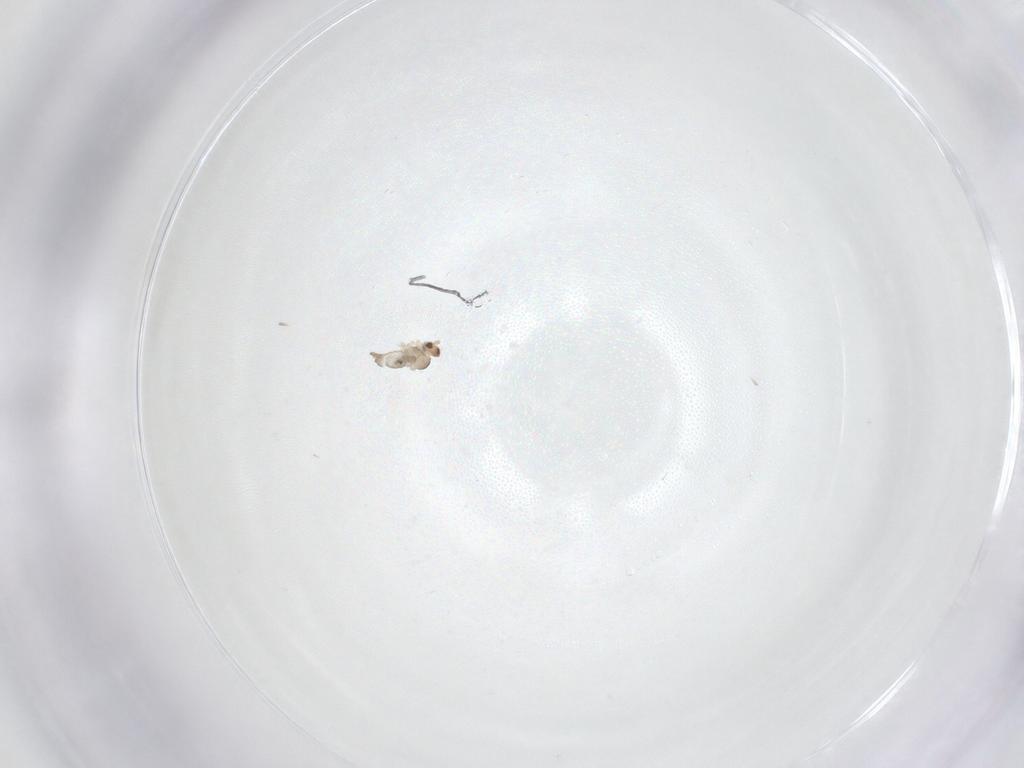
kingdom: Animalia
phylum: Arthropoda
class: Insecta
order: Diptera
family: Cecidomyiidae
